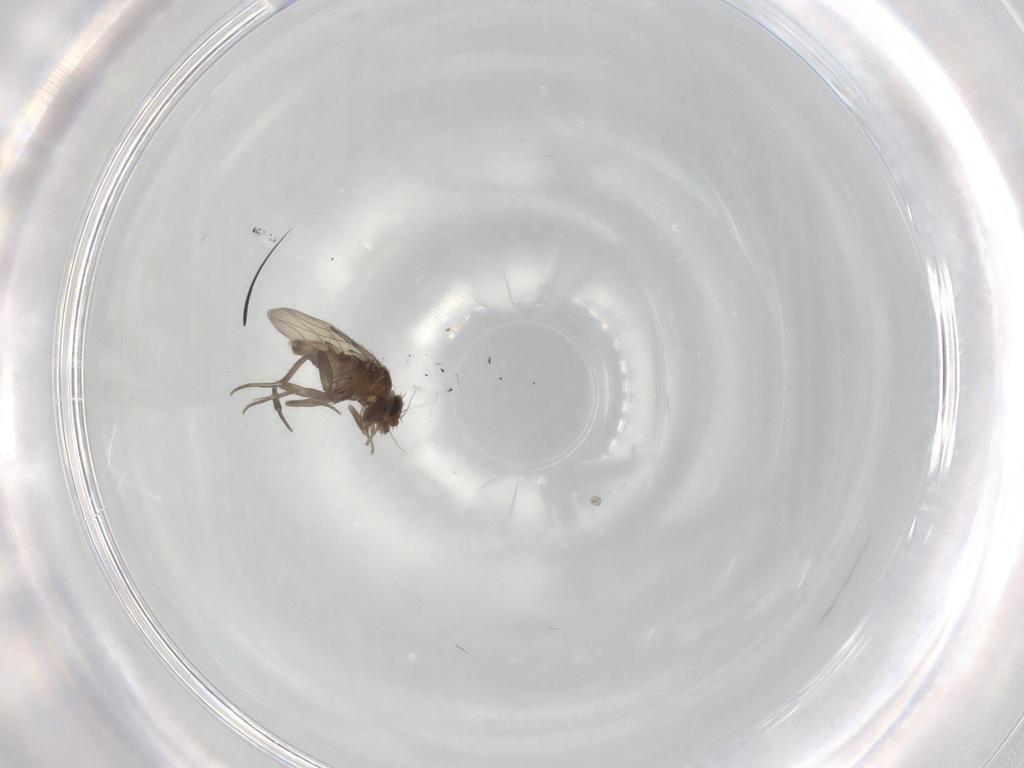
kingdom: Animalia
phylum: Arthropoda
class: Insecta
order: Diptera
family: Phoridae
